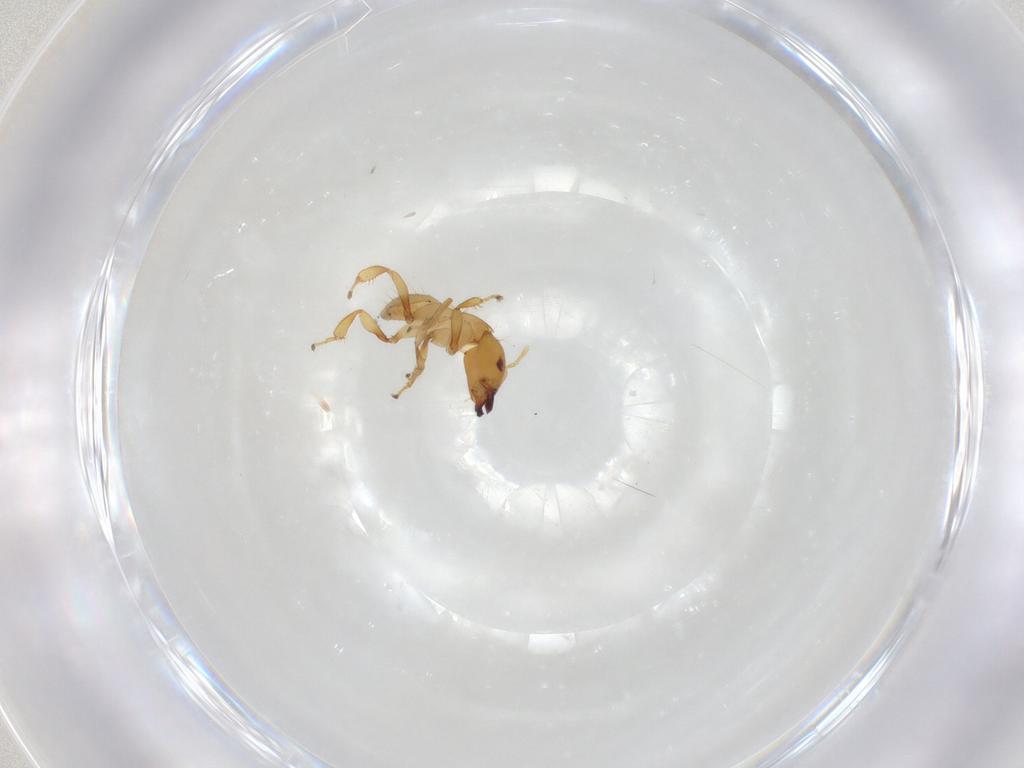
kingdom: Animalia
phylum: Arthropoda
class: Insecta
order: Hymenoptera
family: Pteromalidae
